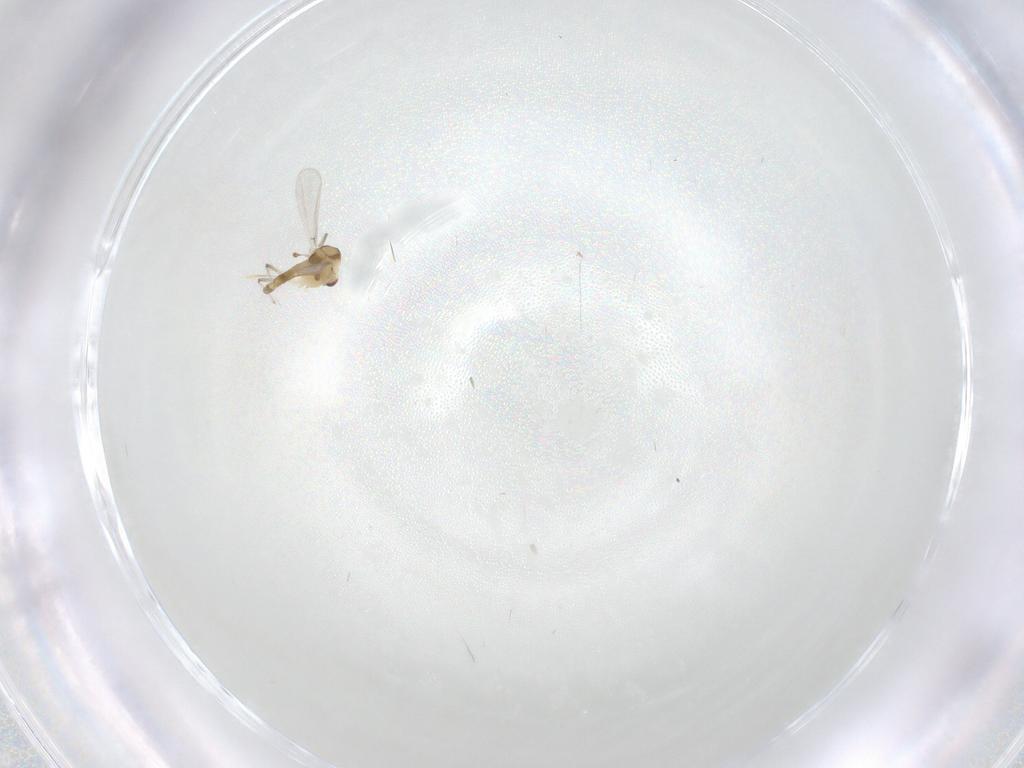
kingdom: Animalia
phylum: Arthropoda
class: Insecta
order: Diptera
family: Chironomidae
